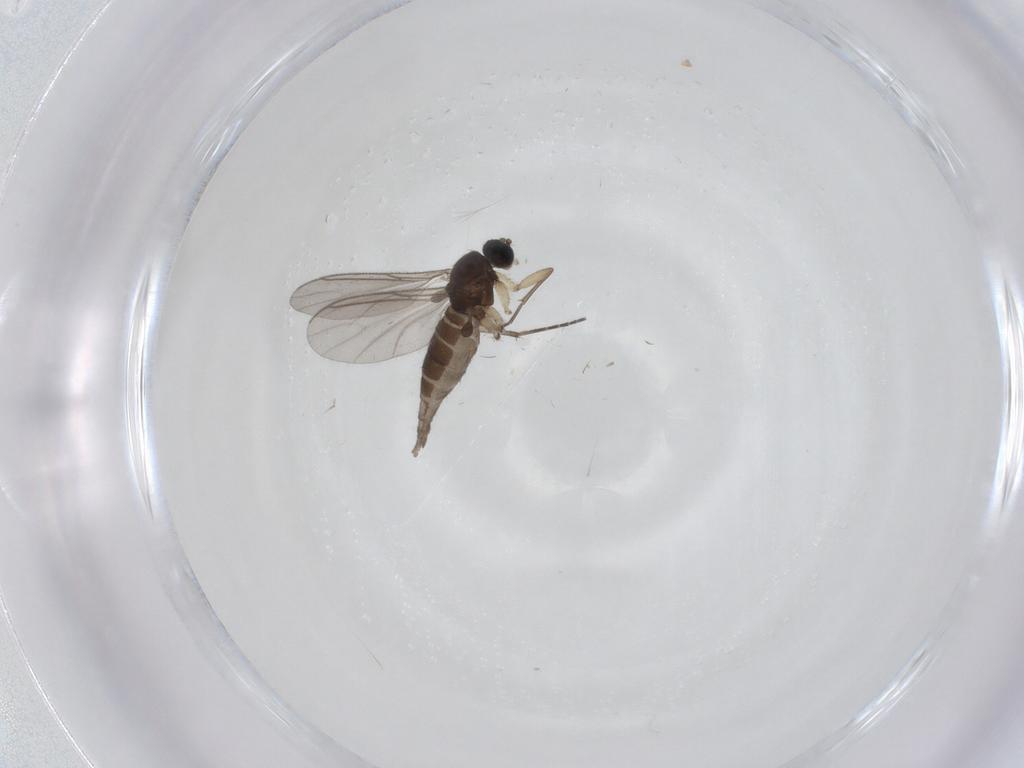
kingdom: Animalia
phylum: Arthropoda
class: Insecta
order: Diptera
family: Sciaridae
